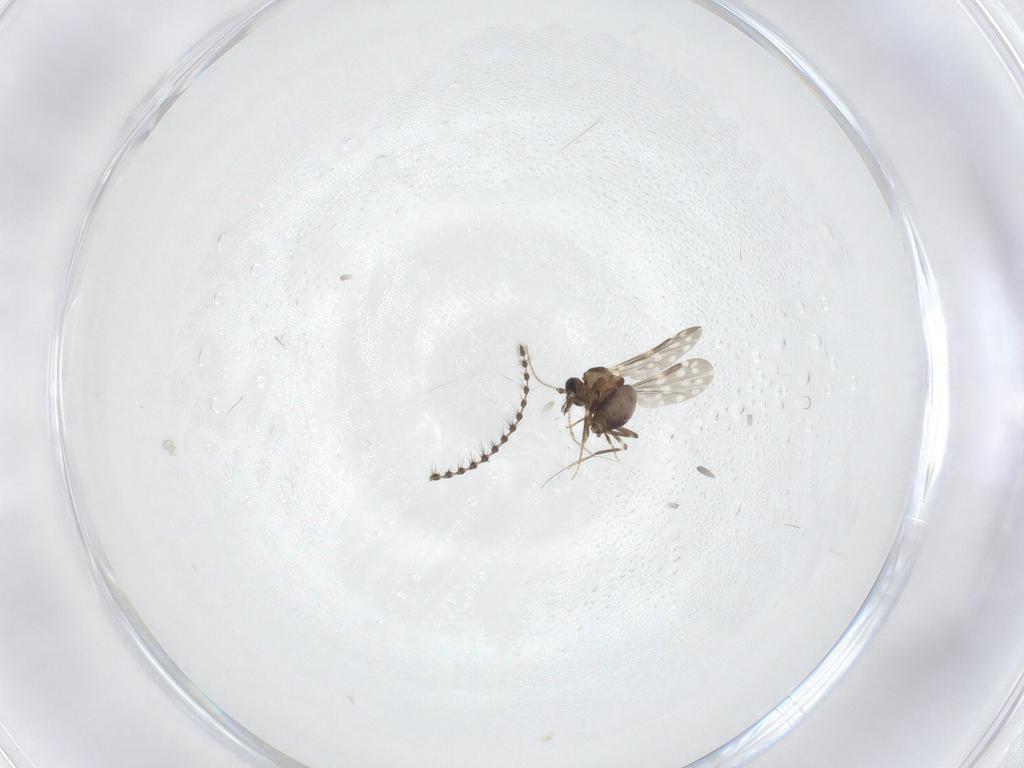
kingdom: Animalia
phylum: Arthropoda
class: Insecta
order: Diptera
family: Ceratopogonidae
